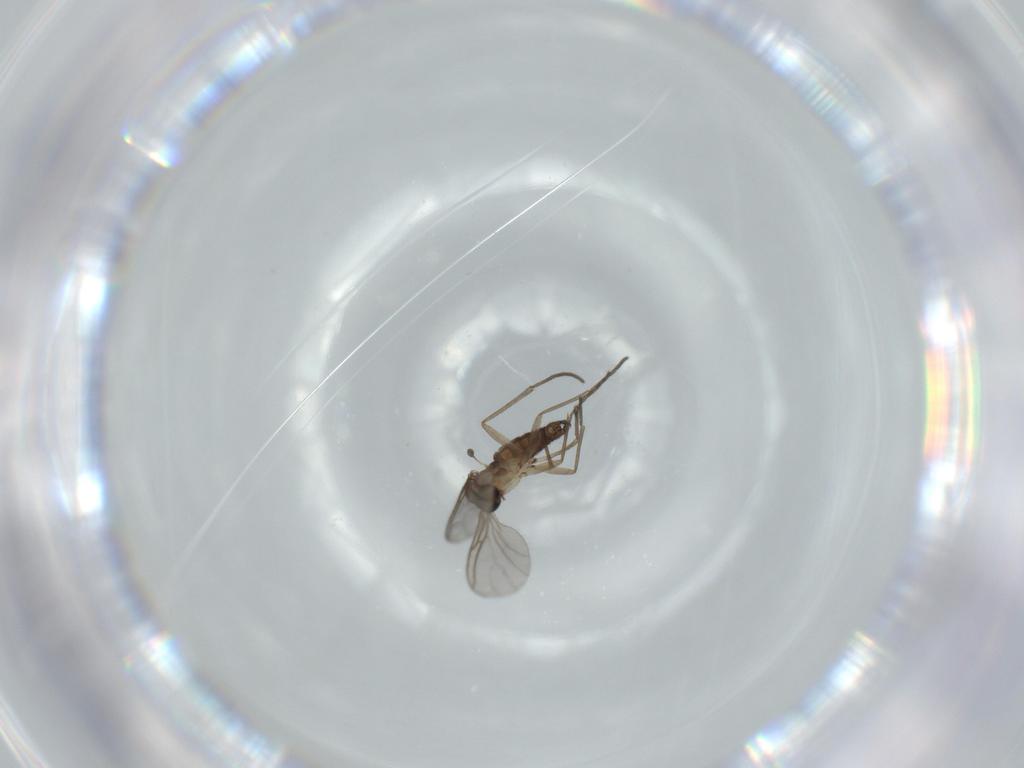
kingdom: Animalia
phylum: Arthropoda
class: Insecta
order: Diptera
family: Sciaridae
